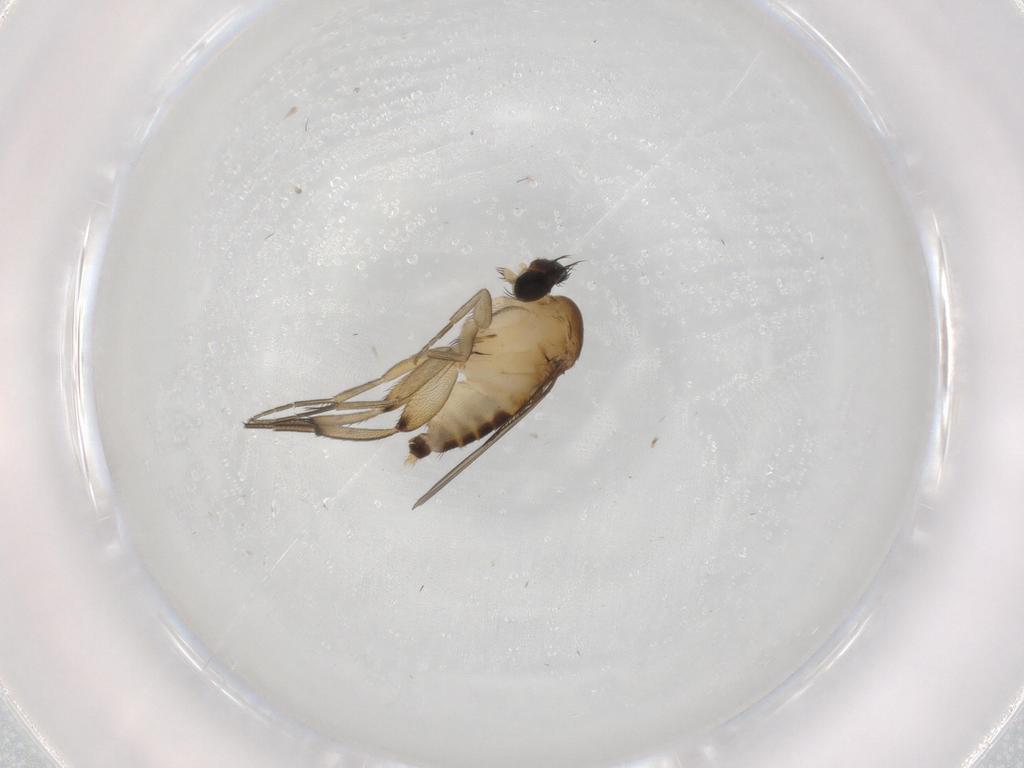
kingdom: Animalia
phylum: Arthropoda
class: Insecta
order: Diptera
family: Phoridae
